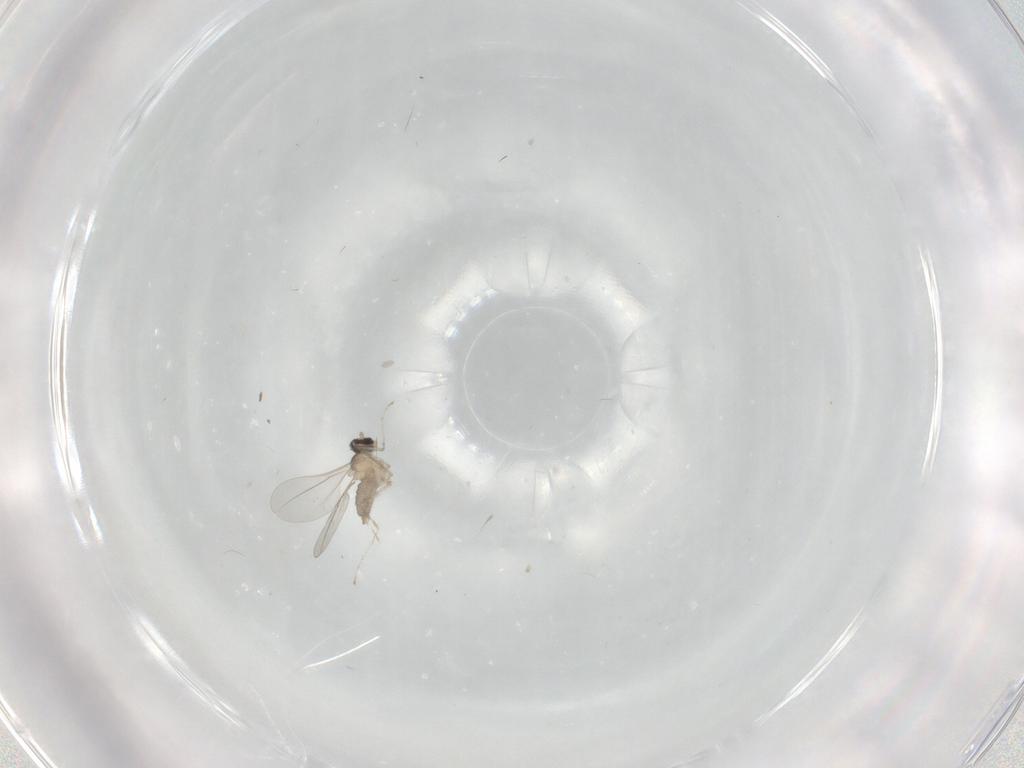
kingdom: Animalia
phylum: Arthropoda
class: Insecta
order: Diptera
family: Cecidomyiidae
